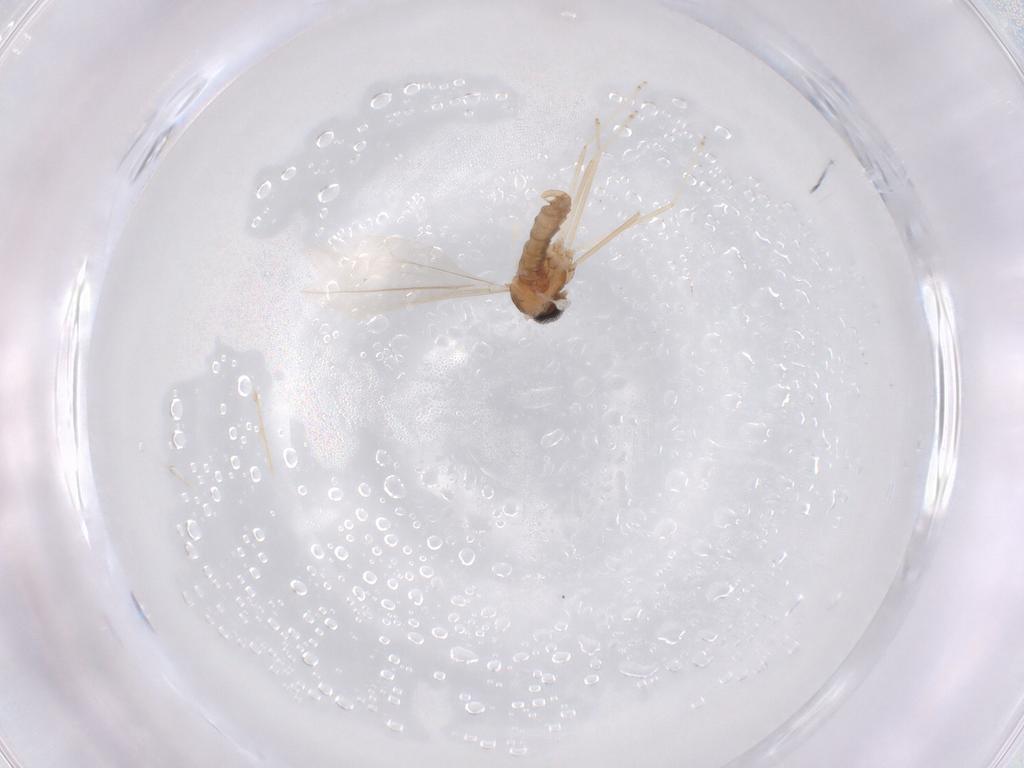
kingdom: Animalia
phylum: Arthropoda
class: Insecta
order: Diptera
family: Cecidomyiidae
